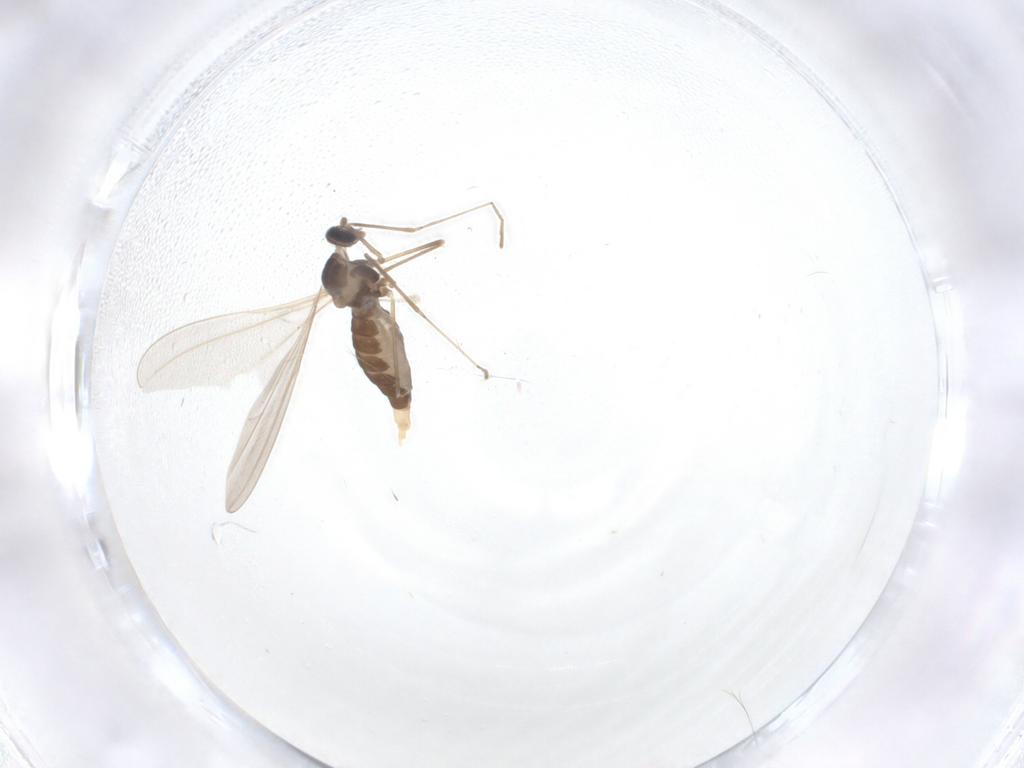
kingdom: Animalia
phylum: Arthropoda
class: Insecta
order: Diptera
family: Cecidomyiidae
